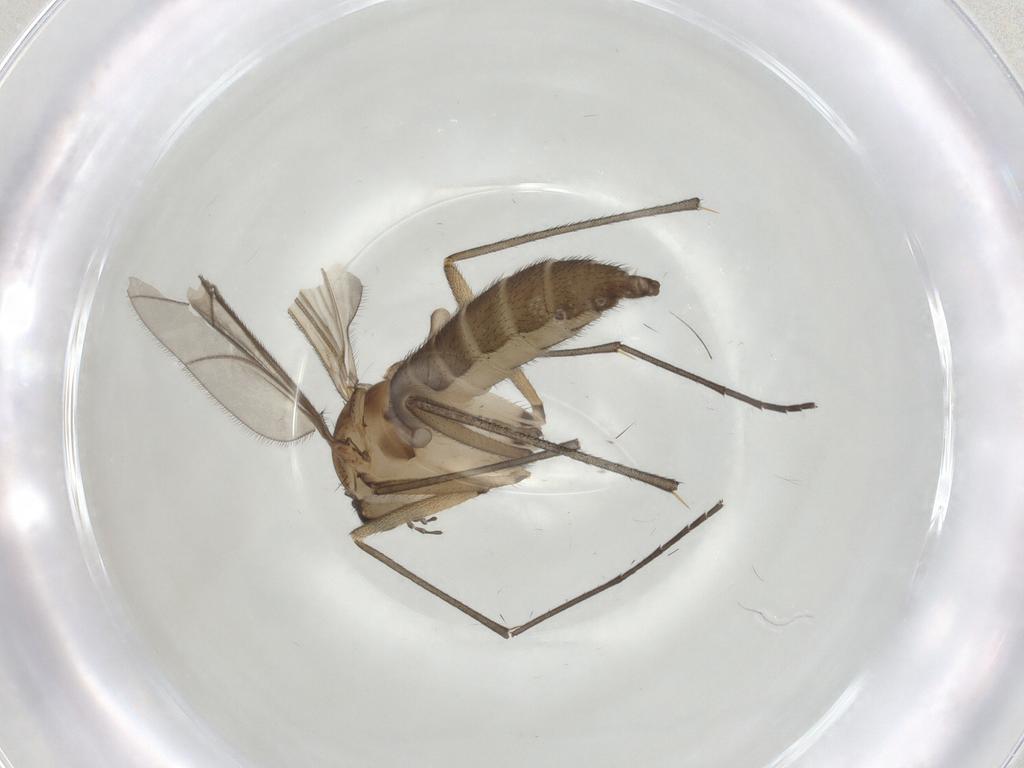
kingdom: Animalia
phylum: Arthropoda
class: Insecta
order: Diptera
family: Sciaridae
